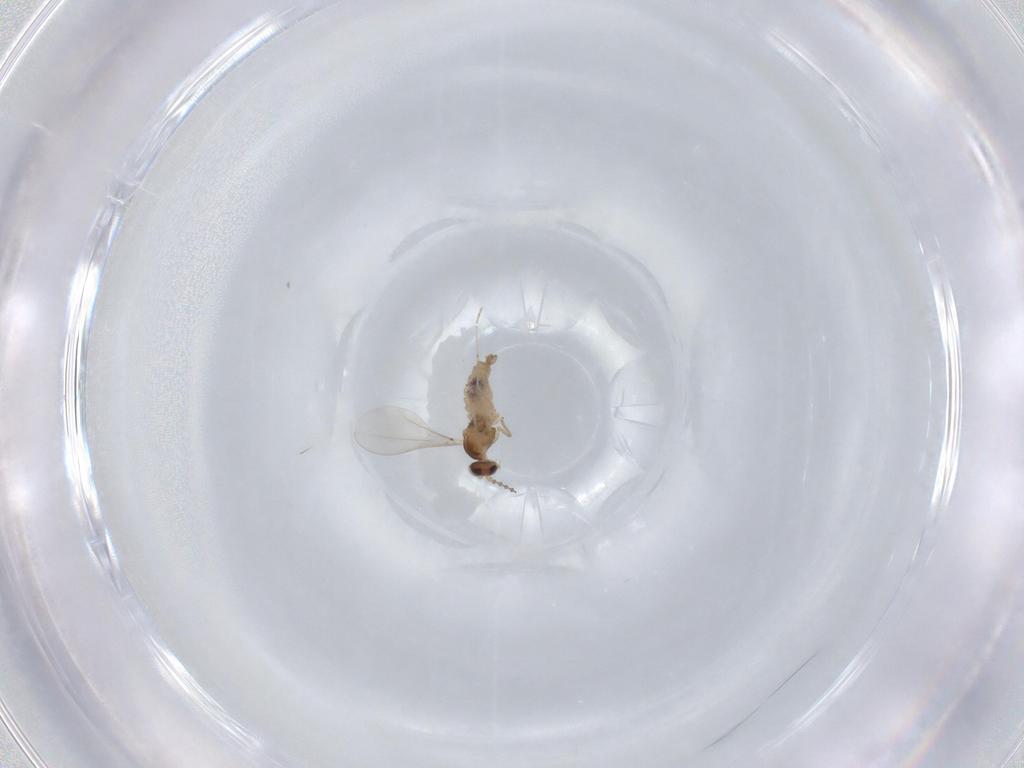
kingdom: Animalia
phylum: Arthropoda
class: Insecta
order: Diptera
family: Cecidomyiidae
